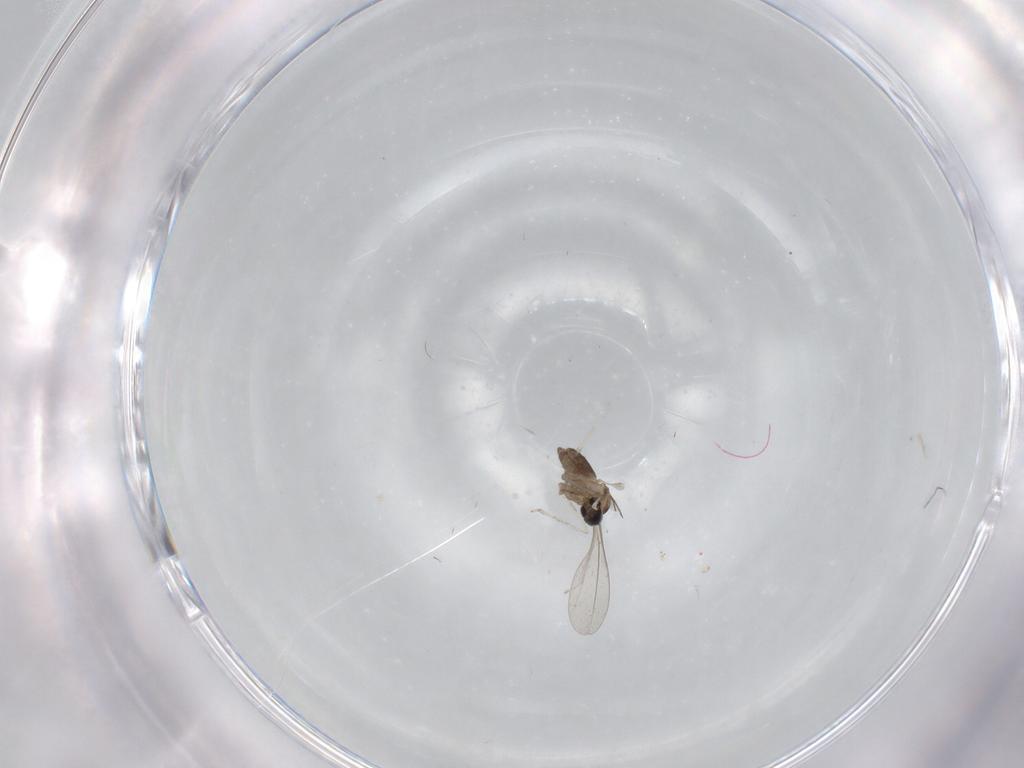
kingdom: Animalia
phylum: Arthropoda
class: Insecta
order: Diptera
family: Cecidomyiidae
